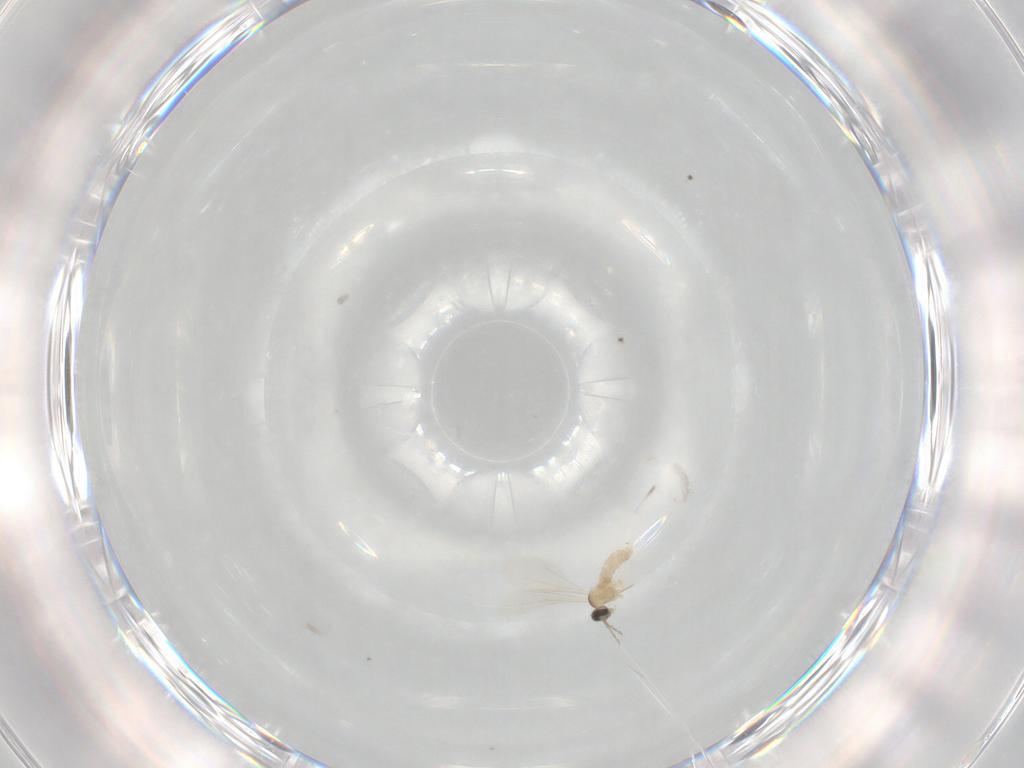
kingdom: Animalia
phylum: Arthropoda
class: Insecta
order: Diptera
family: Cecidomyiidae
